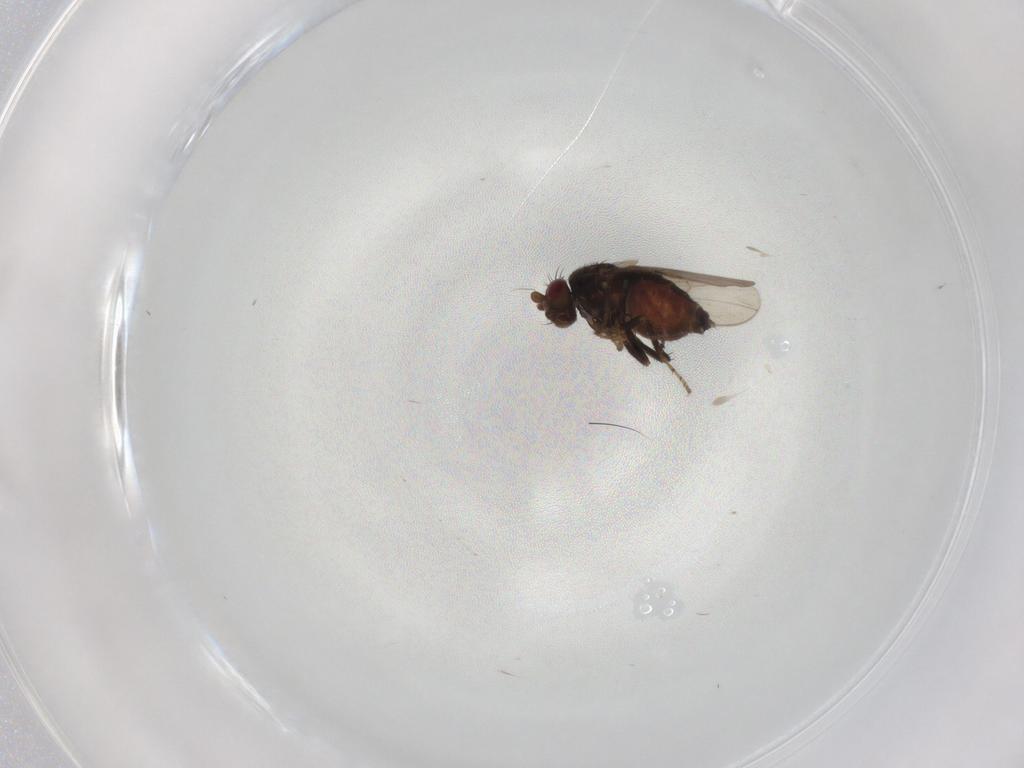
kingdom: Animalia
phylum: Arthropoda
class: Insecta
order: Diptera
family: Sphaeroceridae
